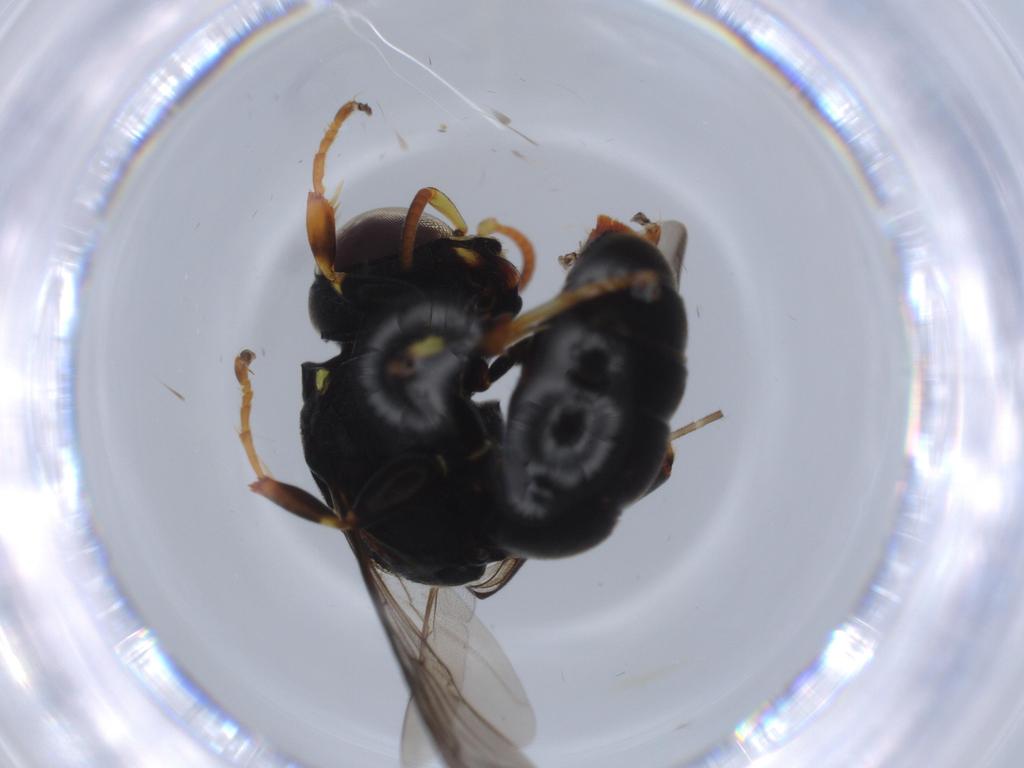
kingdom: Animalia
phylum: Arthropoda
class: Insecta
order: Hymenoptera
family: Crabronidae
